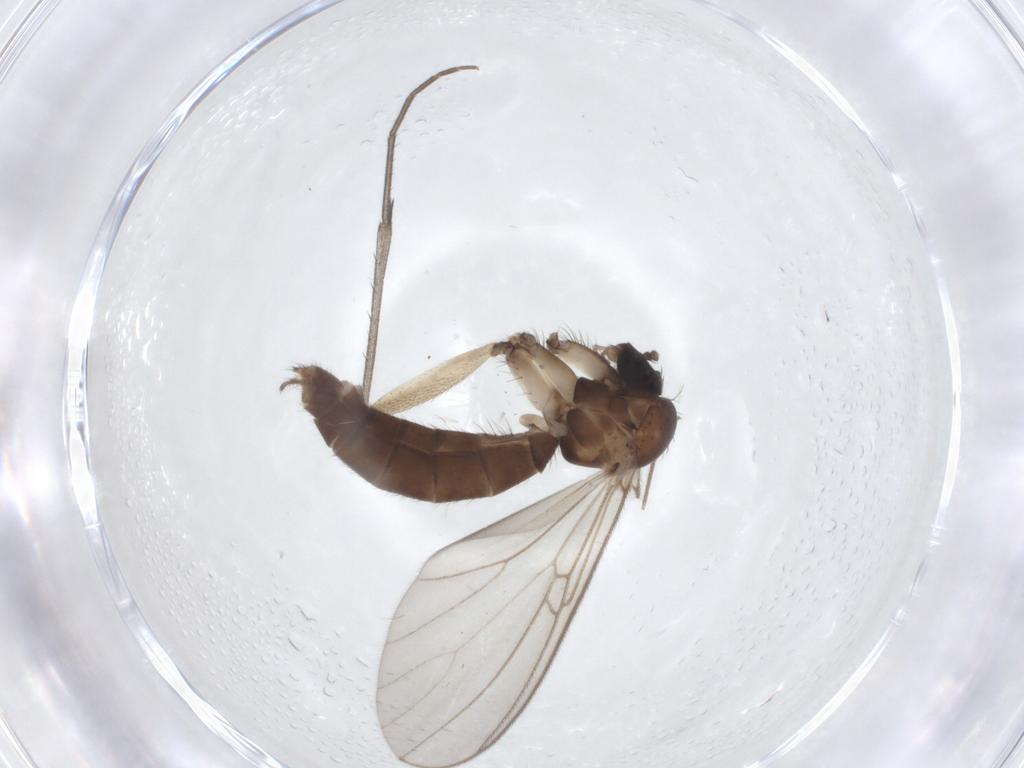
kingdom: Animalia
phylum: Arthropoda
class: Insecta
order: Diptera
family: Mycetophilidae
